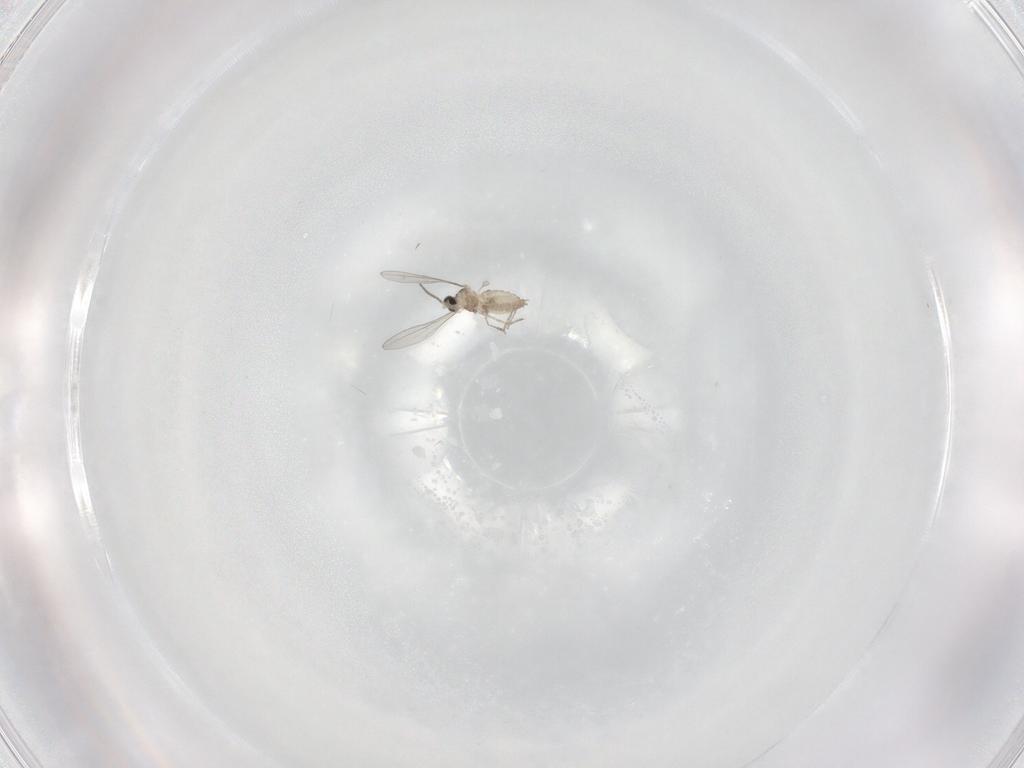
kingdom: Animalia
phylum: Arthropoda
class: Insecta
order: Diptera
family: Cecidomyiidae
